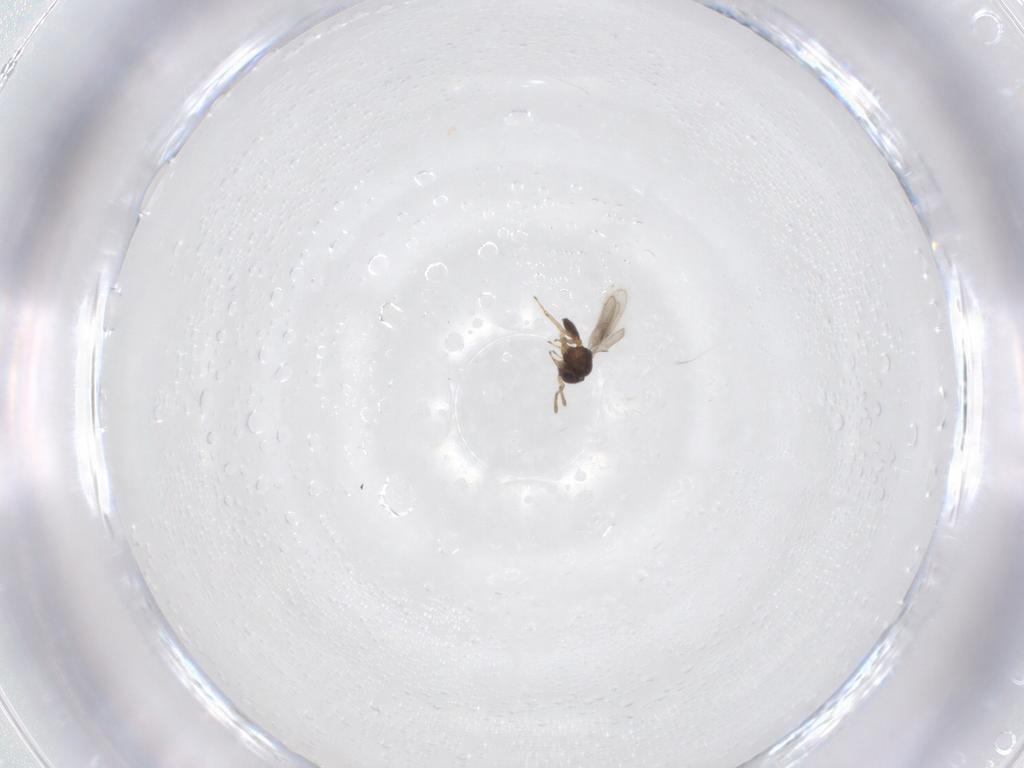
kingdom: Animalia
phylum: Arthropoda
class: Insecta
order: Hymenoptera
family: Scelionidae
